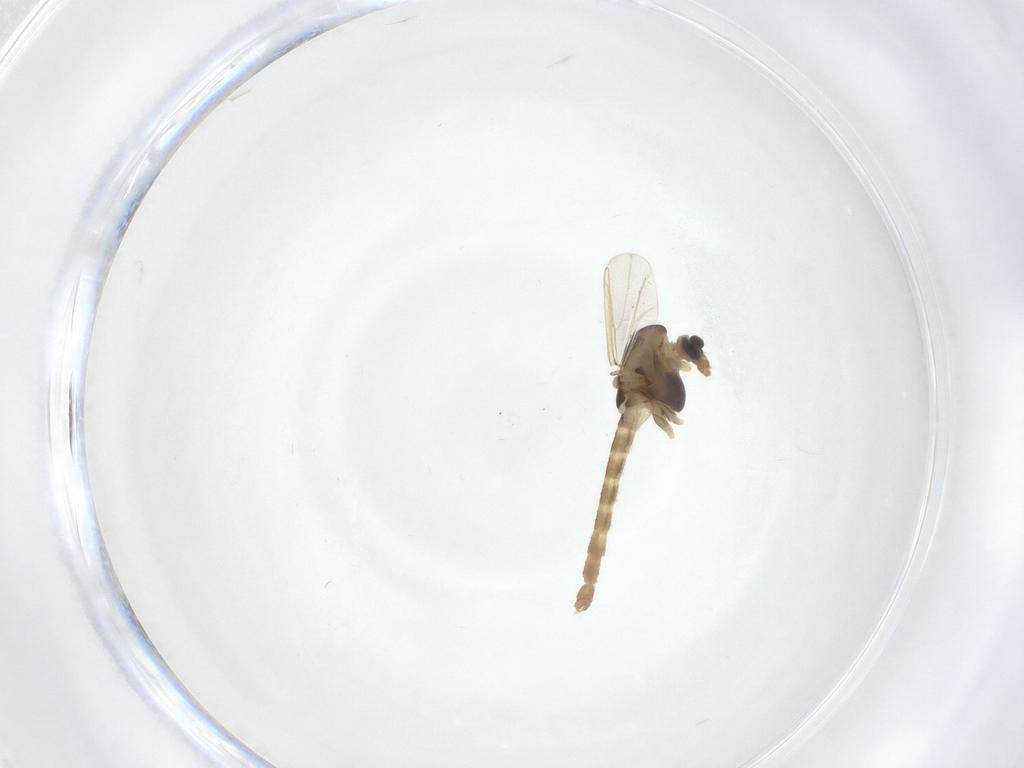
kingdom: Animalia
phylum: Arthropoda
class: Insecta
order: Diptera
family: Chironomidae
